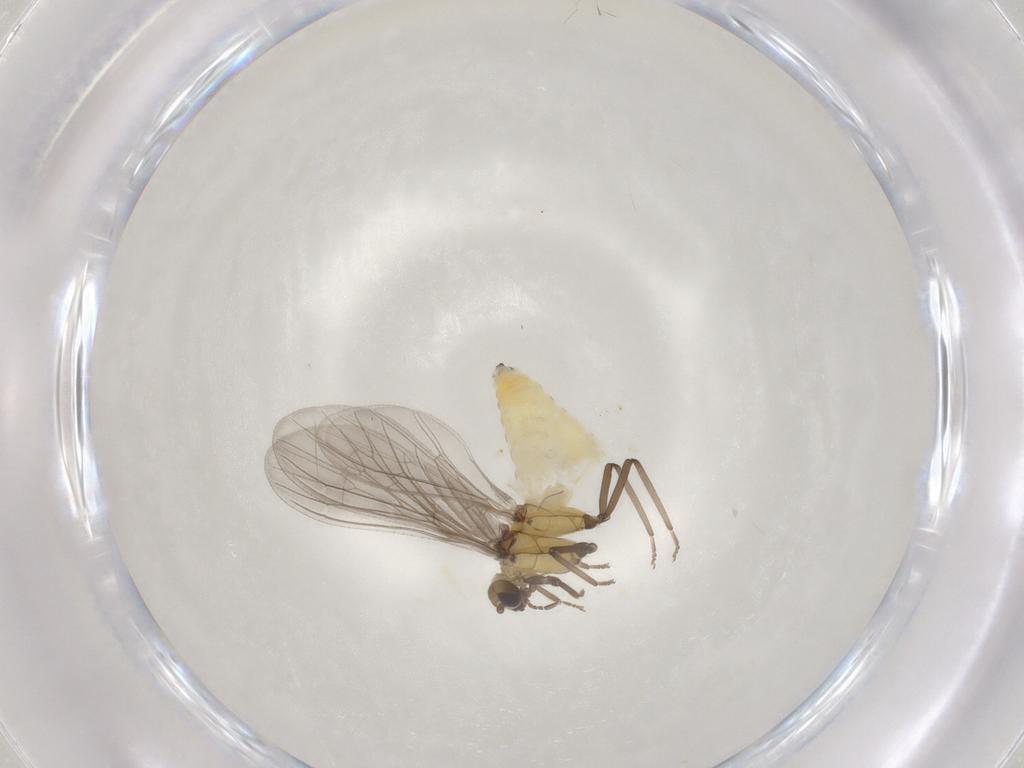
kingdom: Animalia
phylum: Arthropoda
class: Insecta
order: Neuroptera
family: Coniopterygidae
